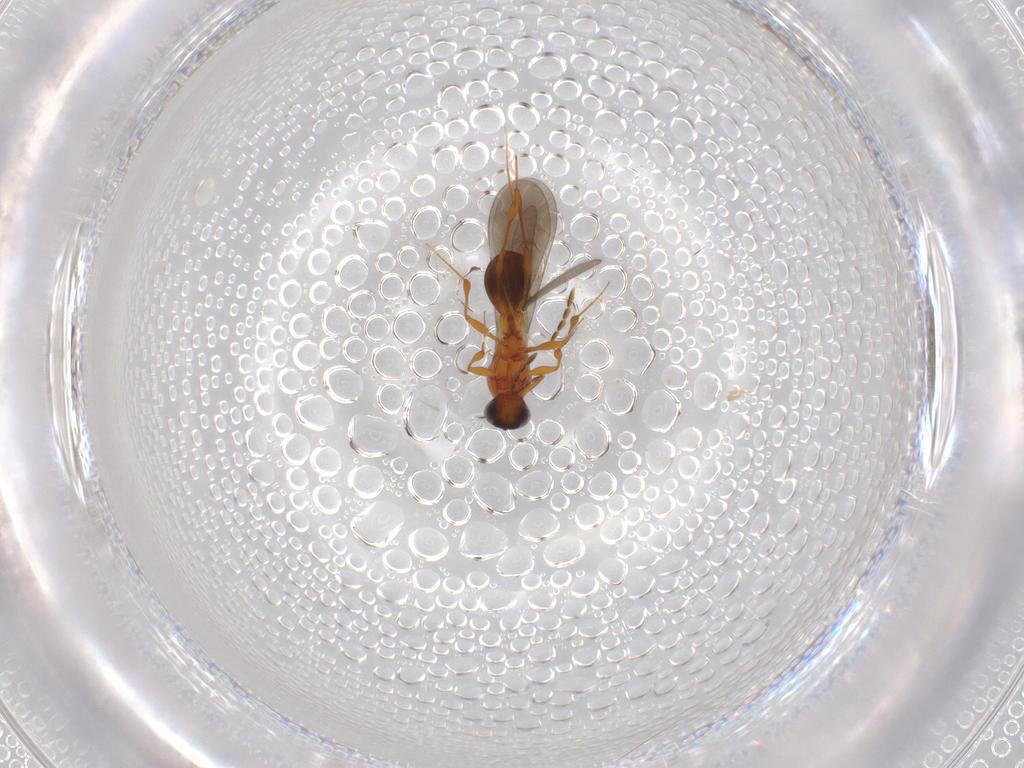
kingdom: Animalia
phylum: Arthropoda
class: Insecta
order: Hymenoptera
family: Platygastridae
